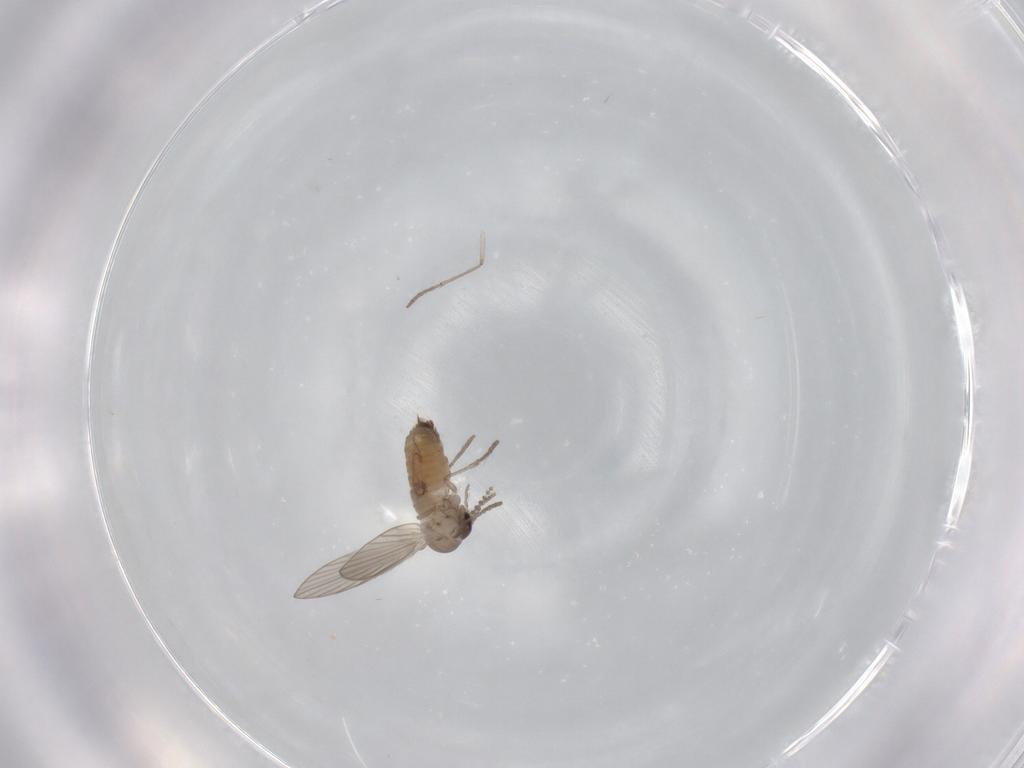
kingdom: Animalia
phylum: Arthropoda
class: Insecta
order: Diptera
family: Psychodidae
